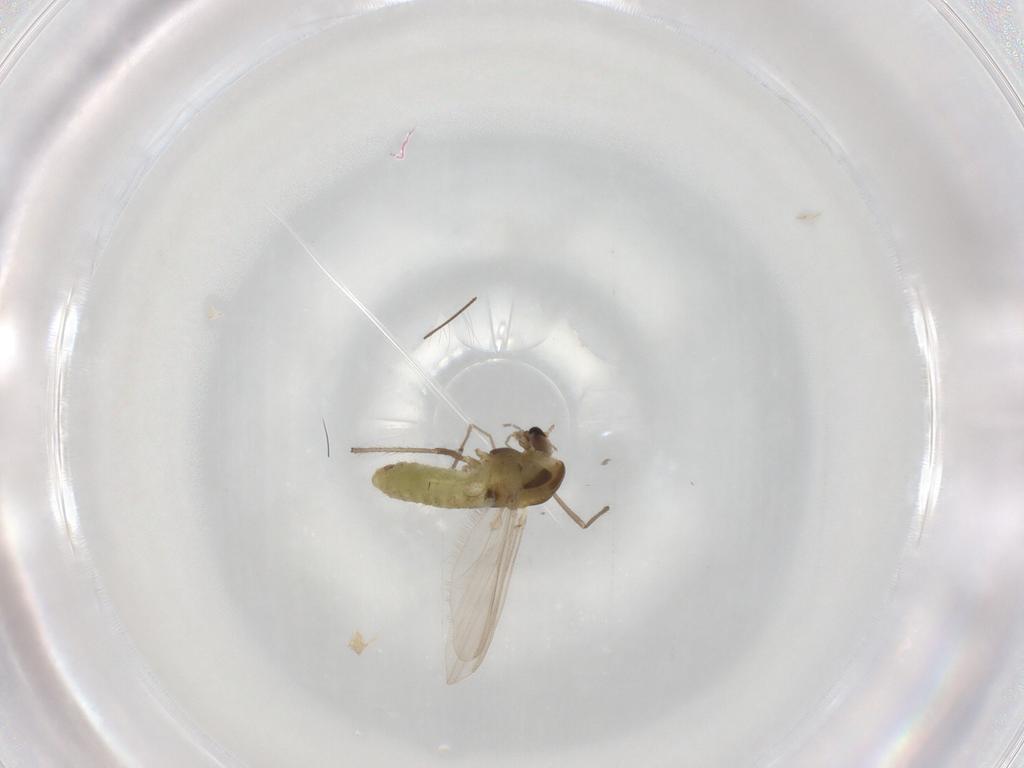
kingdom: Animalia
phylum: Arthropoda
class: Insecta
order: Diptera
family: Chironomidae
